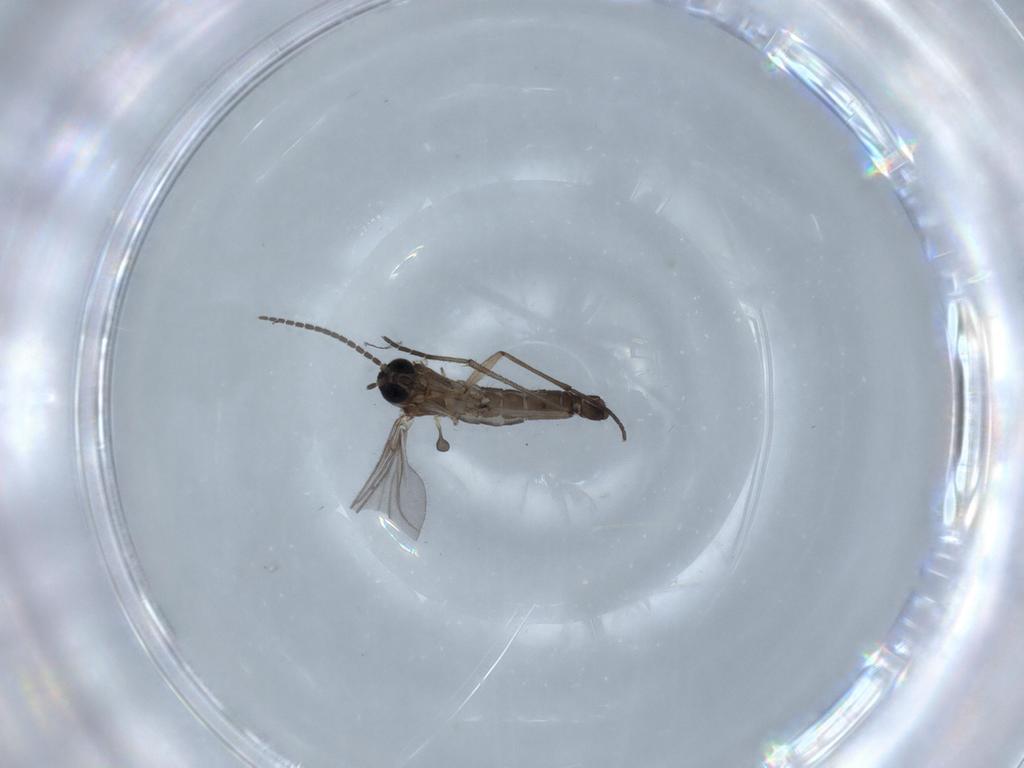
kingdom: Animalia
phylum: Arthropoda
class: Insecta
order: Diptera
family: Sciaridae
